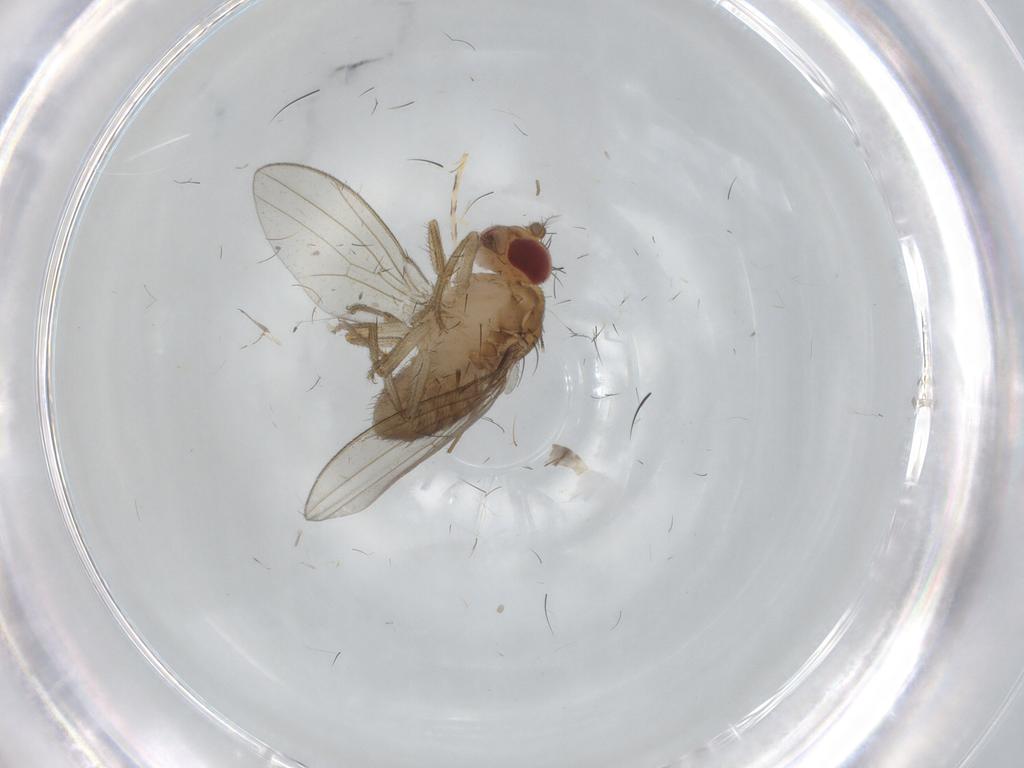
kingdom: Animalia
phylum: Arthropoda
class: Insecta
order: Diptera
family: Drosophilidae
